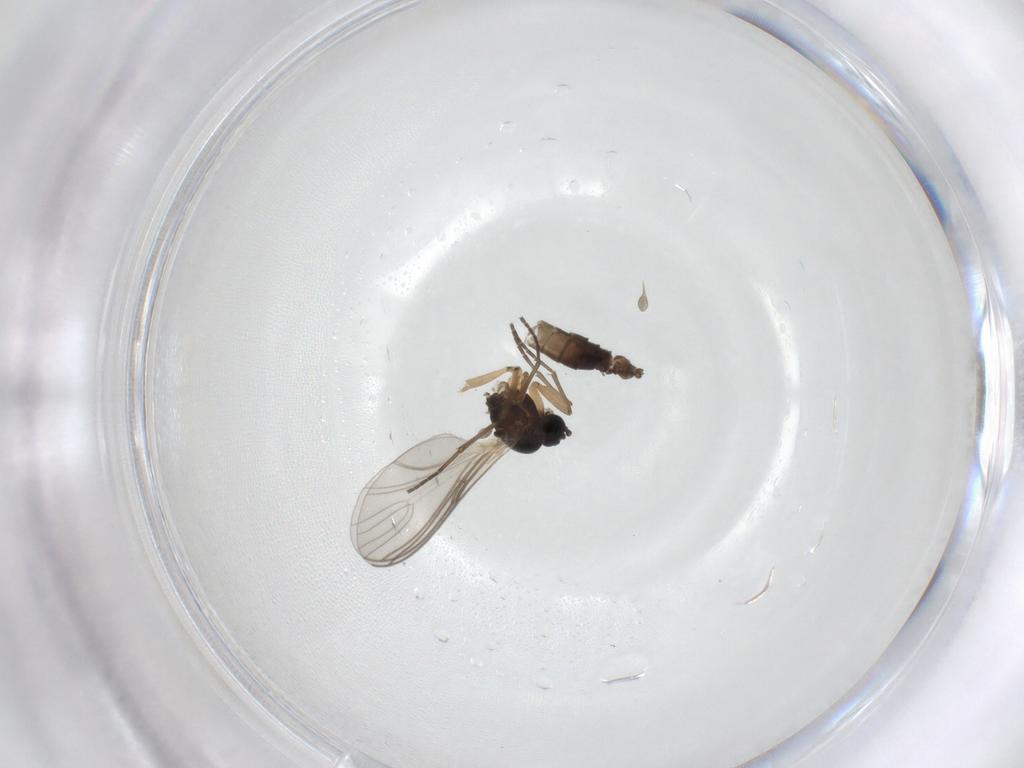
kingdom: Animalia
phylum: Arthropoda
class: Insecta
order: Diptera
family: Sciaridae
